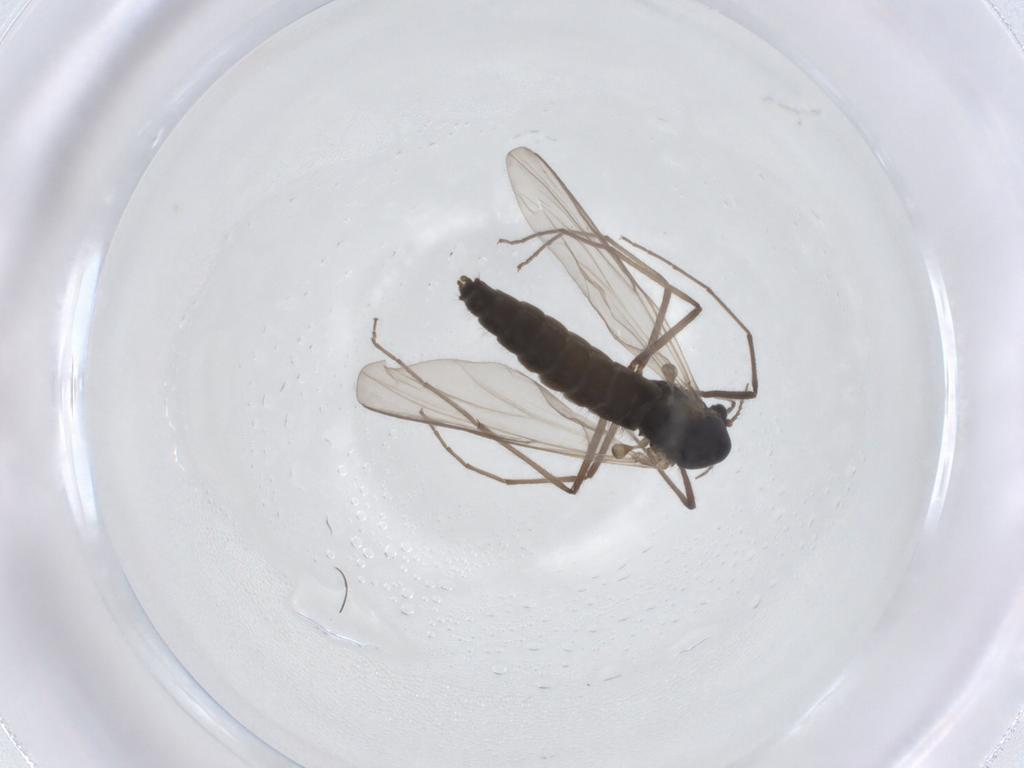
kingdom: Animalia
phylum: Arthropoda
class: Insecta
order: Diptera
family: Chironomidae
